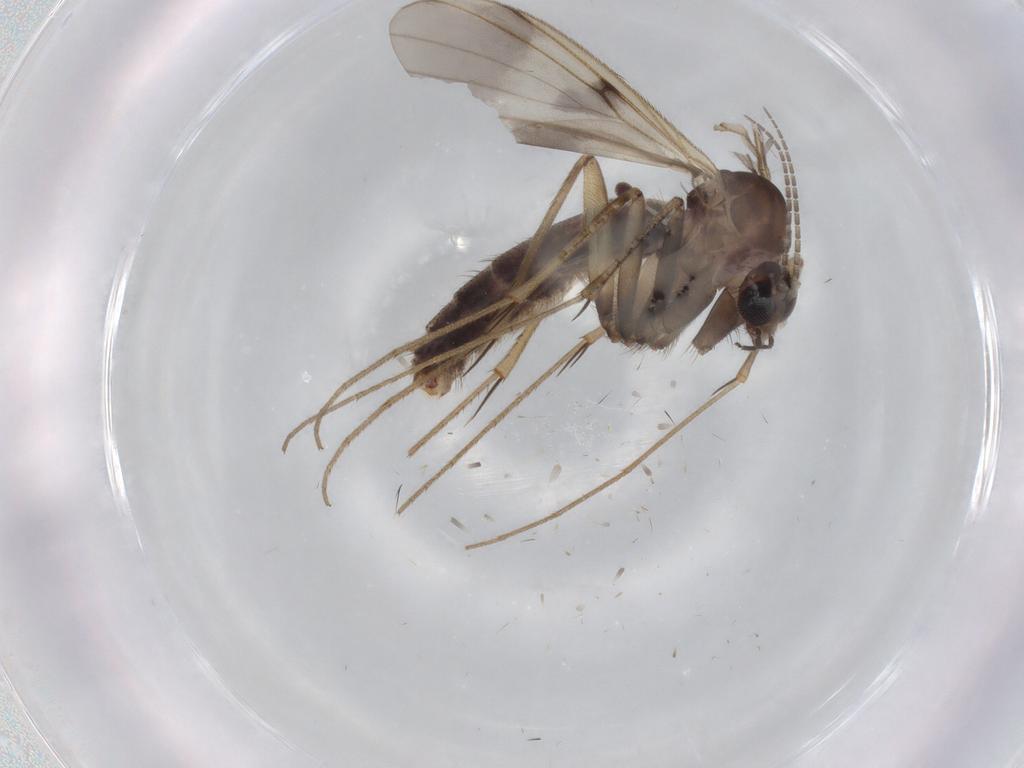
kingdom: Animalia
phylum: Arthropoda
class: Insecta
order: Diptera
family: Mycetophilidae
